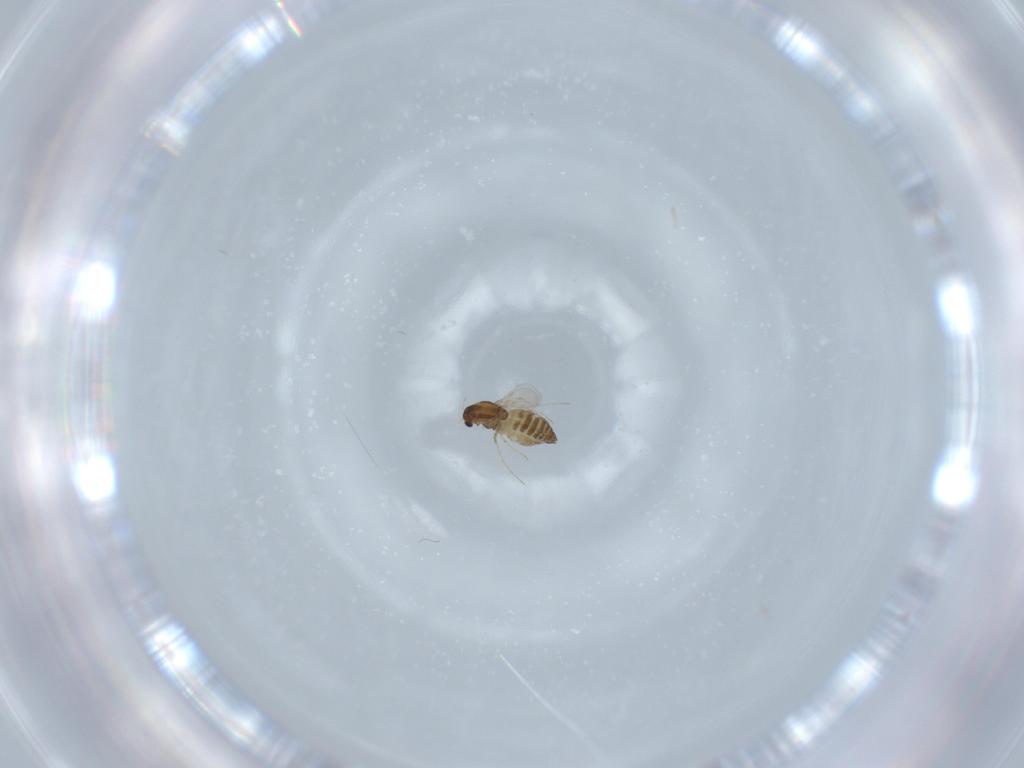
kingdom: Animalia
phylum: Arthropoda
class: Insecta
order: Diptera
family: Chironomidae
